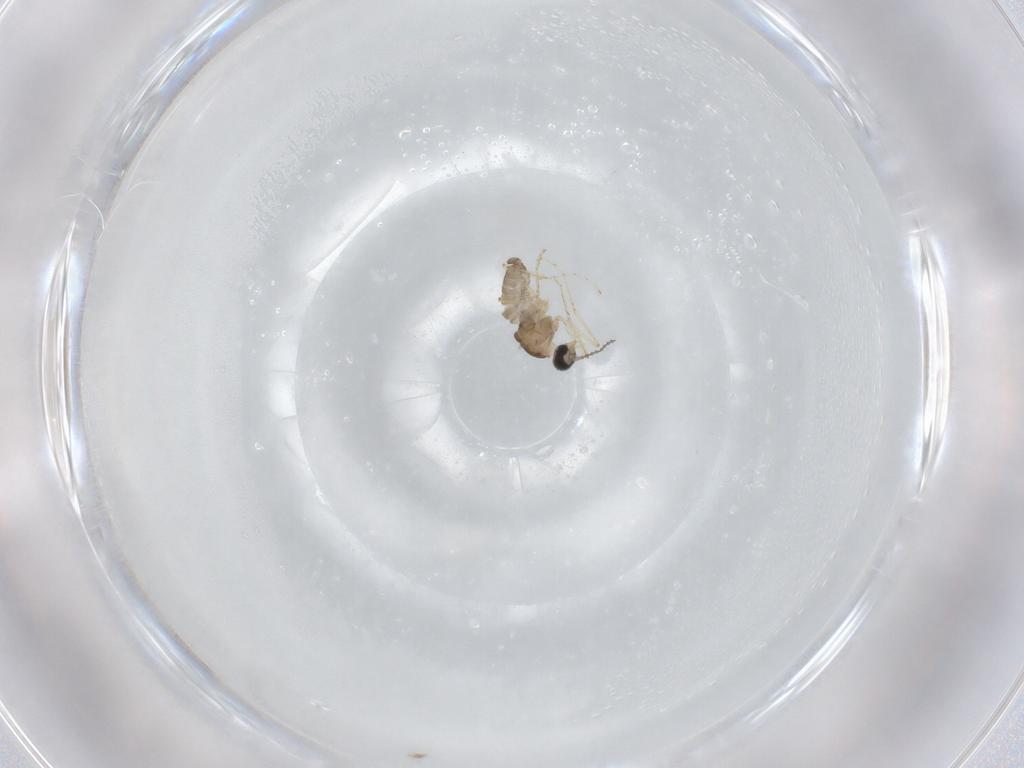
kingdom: Animalia
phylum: Arthropoda
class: Insecta
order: Diptera
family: Cecidomyiidae
